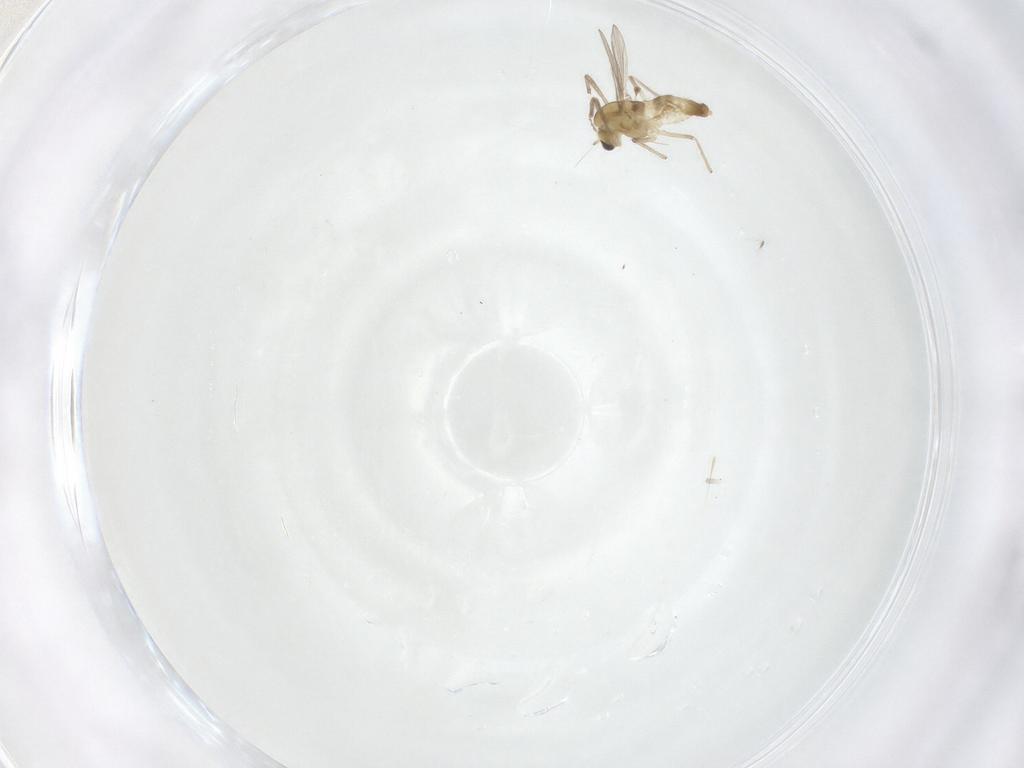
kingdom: Animalia
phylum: Arthropoda
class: Insecta
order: Diptera
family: Chironomidae
